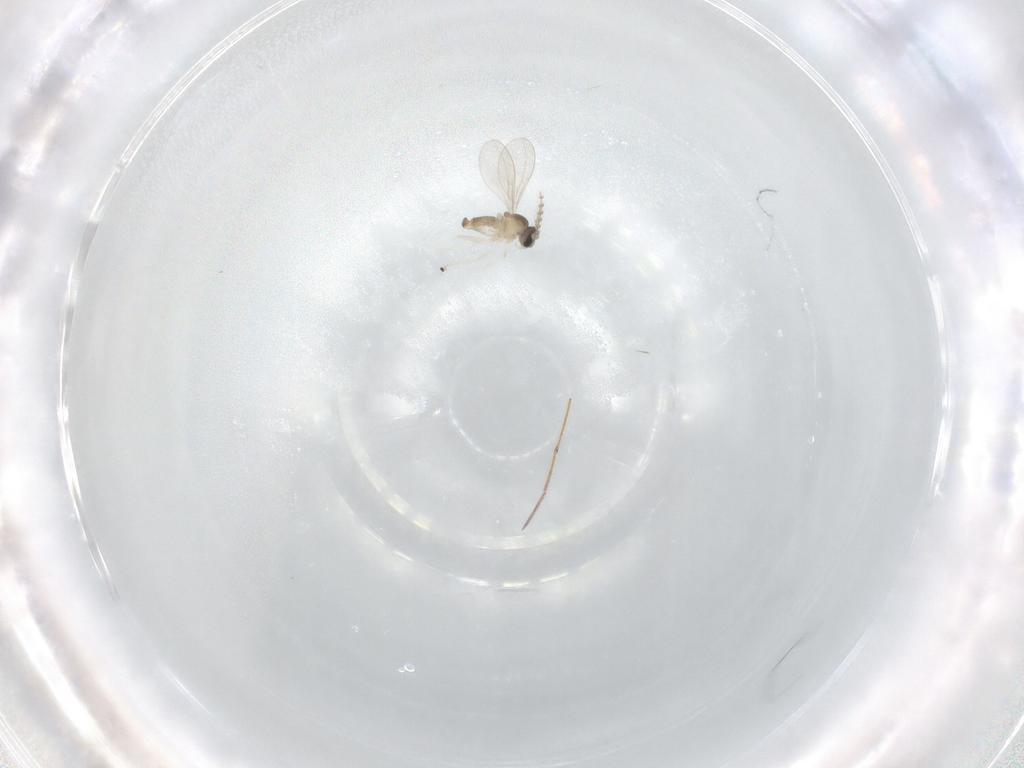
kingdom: Animalia
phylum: Arthropoda
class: Insecta
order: Diptera
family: Cecidomyiidae
